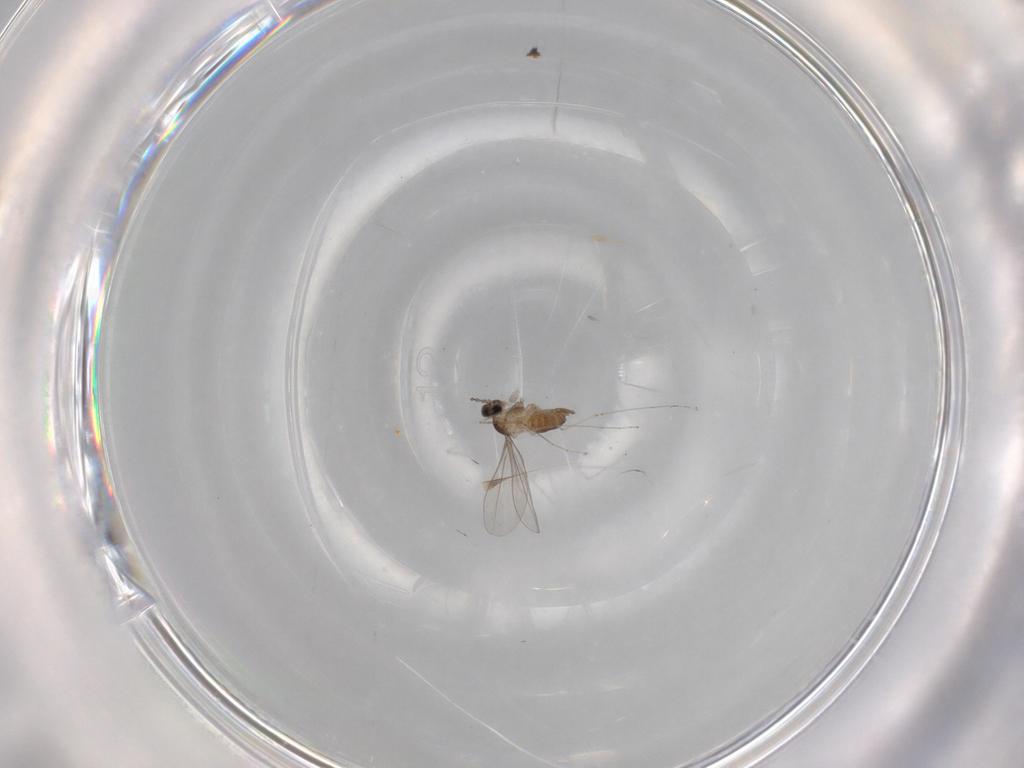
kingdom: Animalia
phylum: Arthropoda
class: Insecta
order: Diptera
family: Cecidomyiidae
